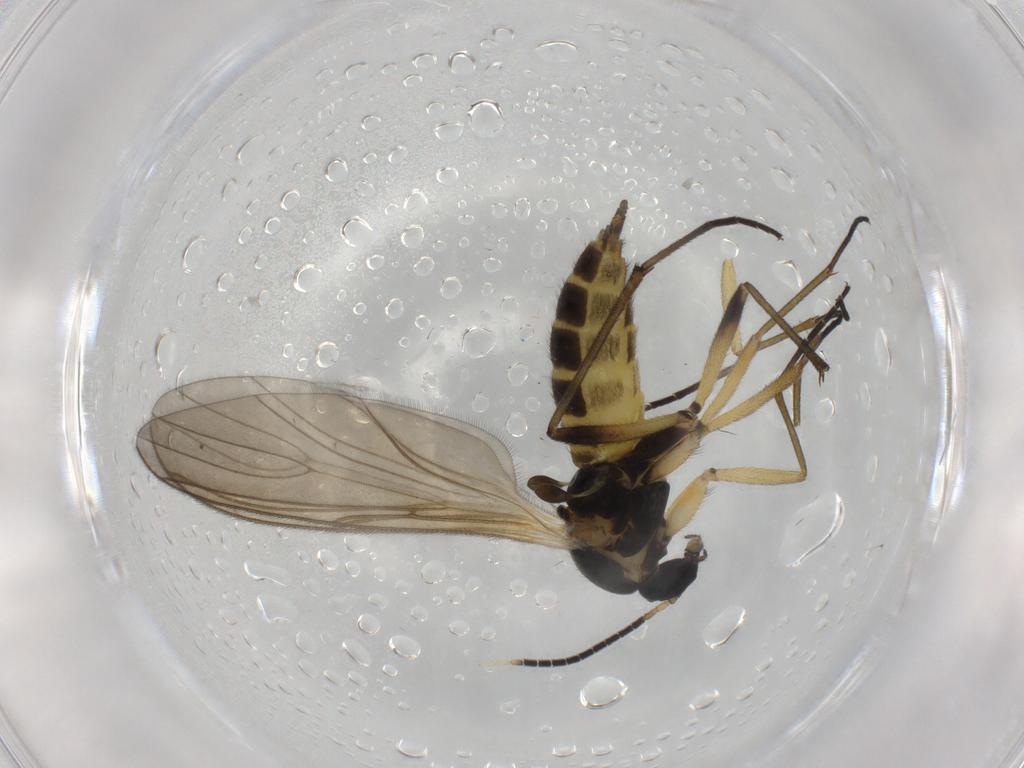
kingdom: Animalia
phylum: Arthropoda
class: Insecta
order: Diptera
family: Sciaridae
